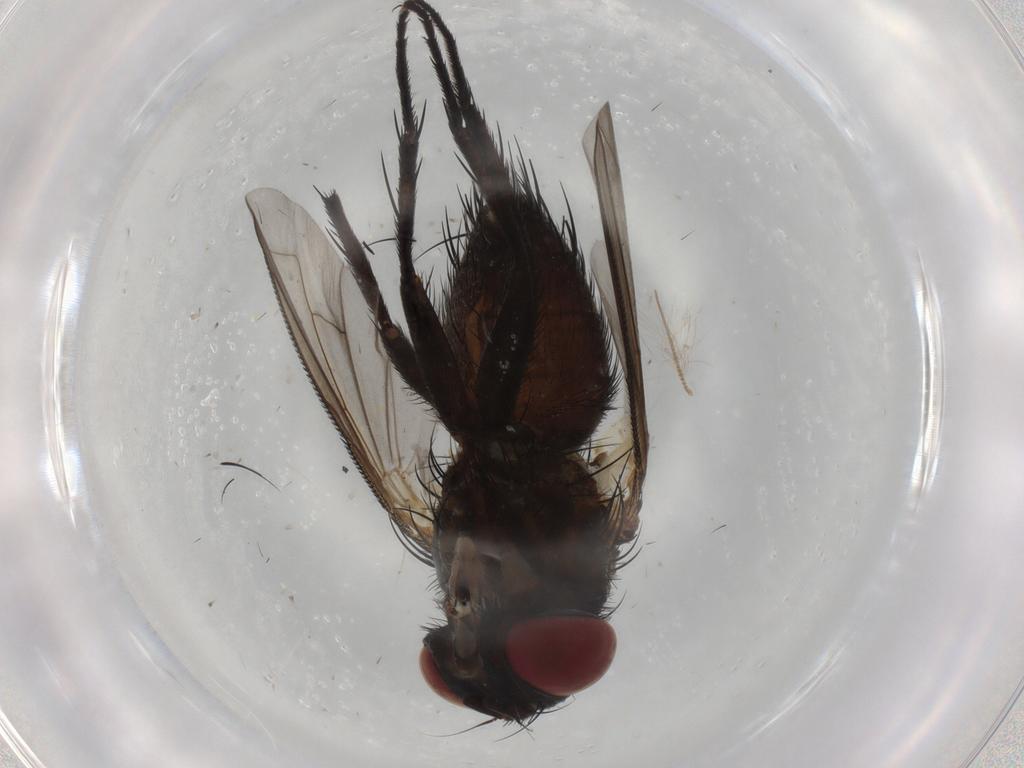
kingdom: Animalia
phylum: Arthropoda
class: Insecta
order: Diptera
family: Tachinidae
